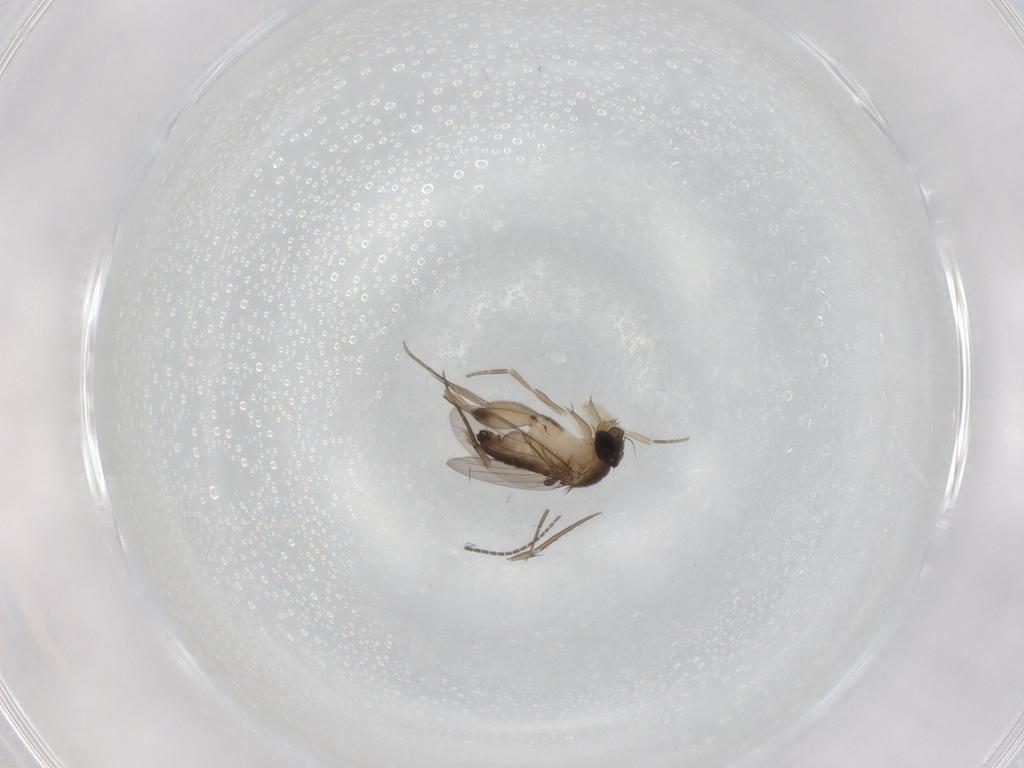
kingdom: Animalia
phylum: Arthropoda
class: Insecta
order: Diptera
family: Phoridae
